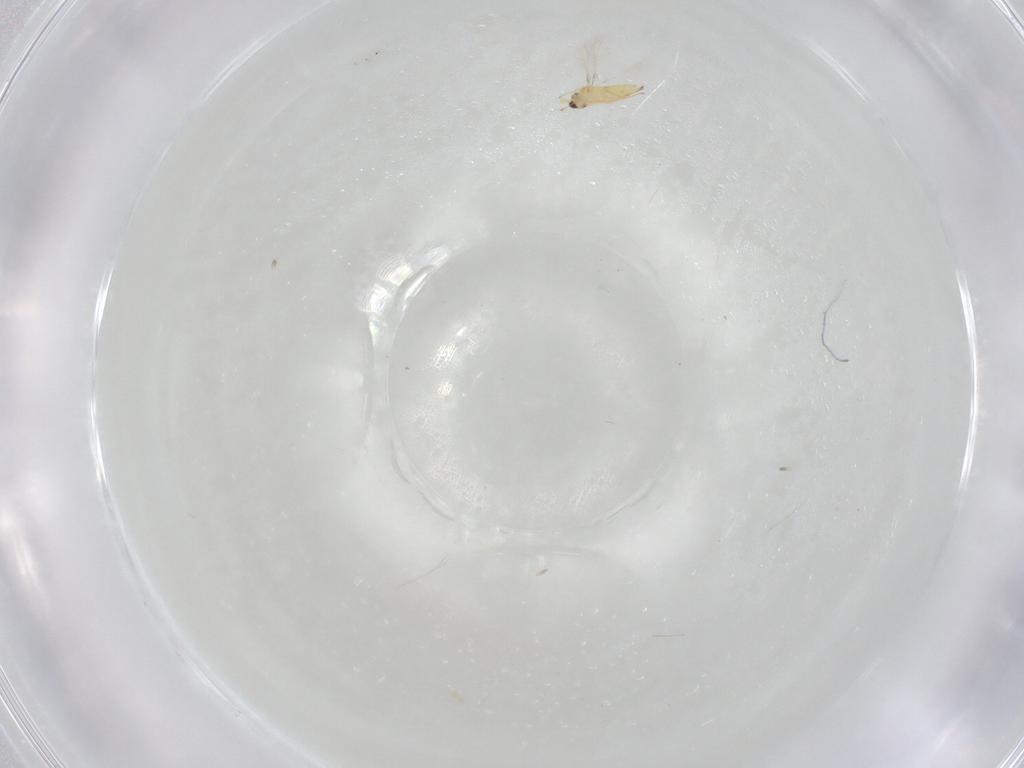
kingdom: Animalia
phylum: Arthropoda
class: Insecta
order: Hymenoptera
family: Mymaridae
